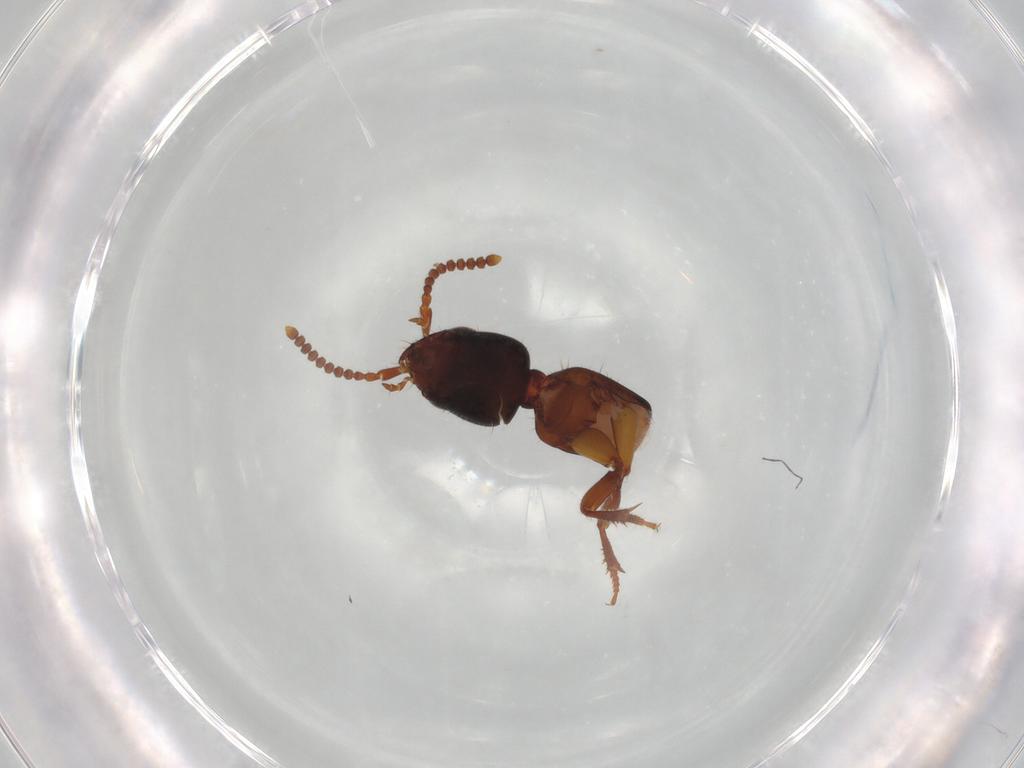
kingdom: Animalia
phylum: Arthropoda
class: Insecta
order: Coleoptera
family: Staphylinidae
